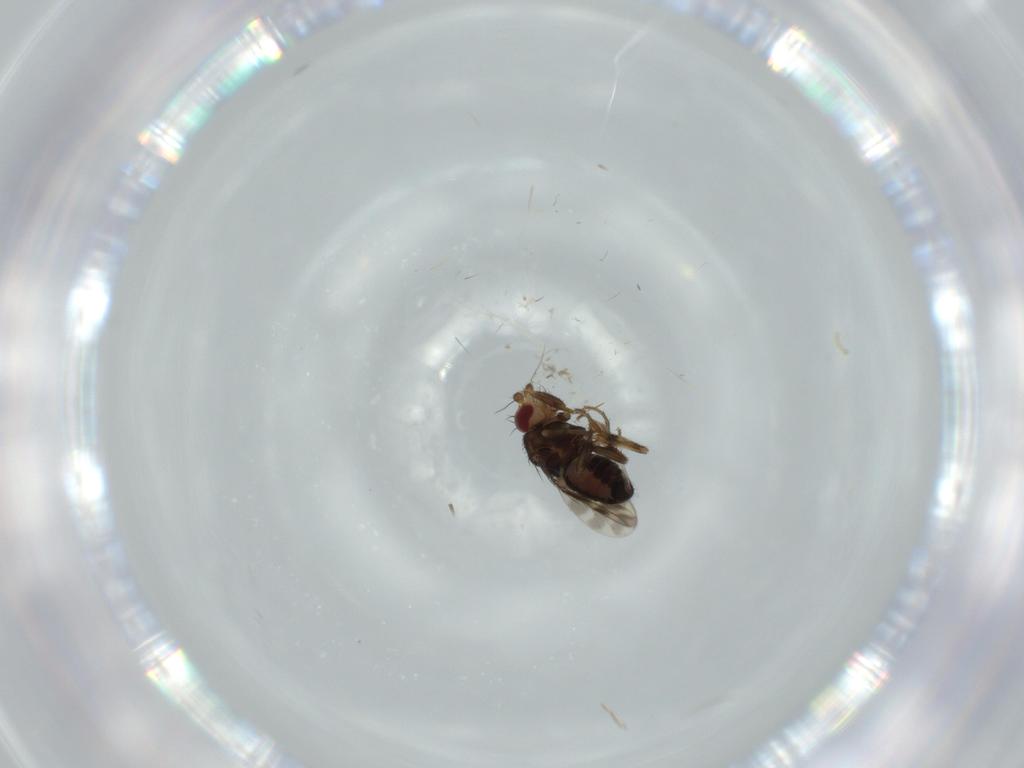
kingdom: Animalia
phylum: Arthropoda
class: Insecta
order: Diptera
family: Sphaeroceridae
